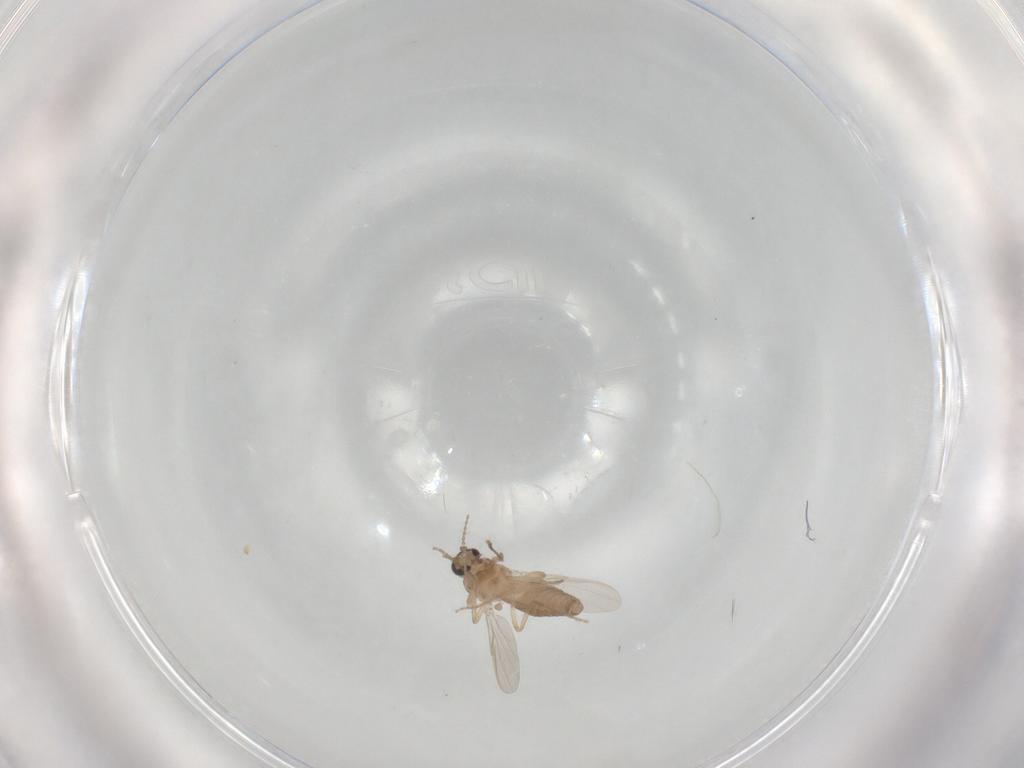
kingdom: Animalia
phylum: Arthropoda
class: Insecta
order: Diptera
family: Ceratopogonidae
